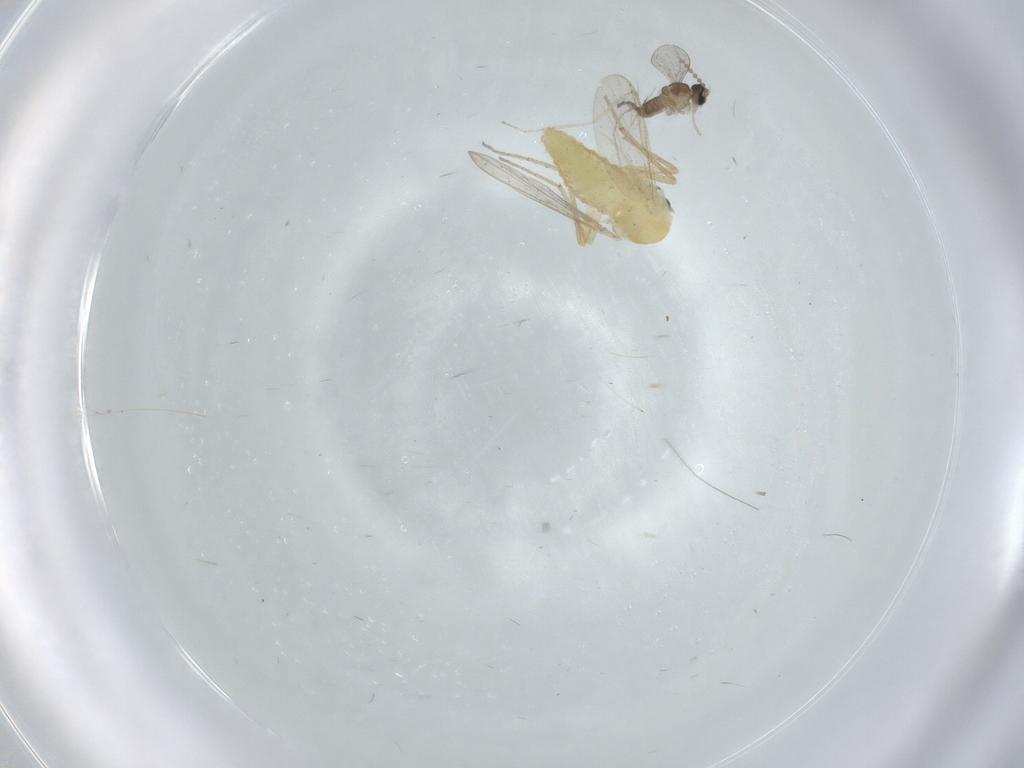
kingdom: Animalia
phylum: Arthropoda
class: Insecta
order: Diptera
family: Chironomidae
